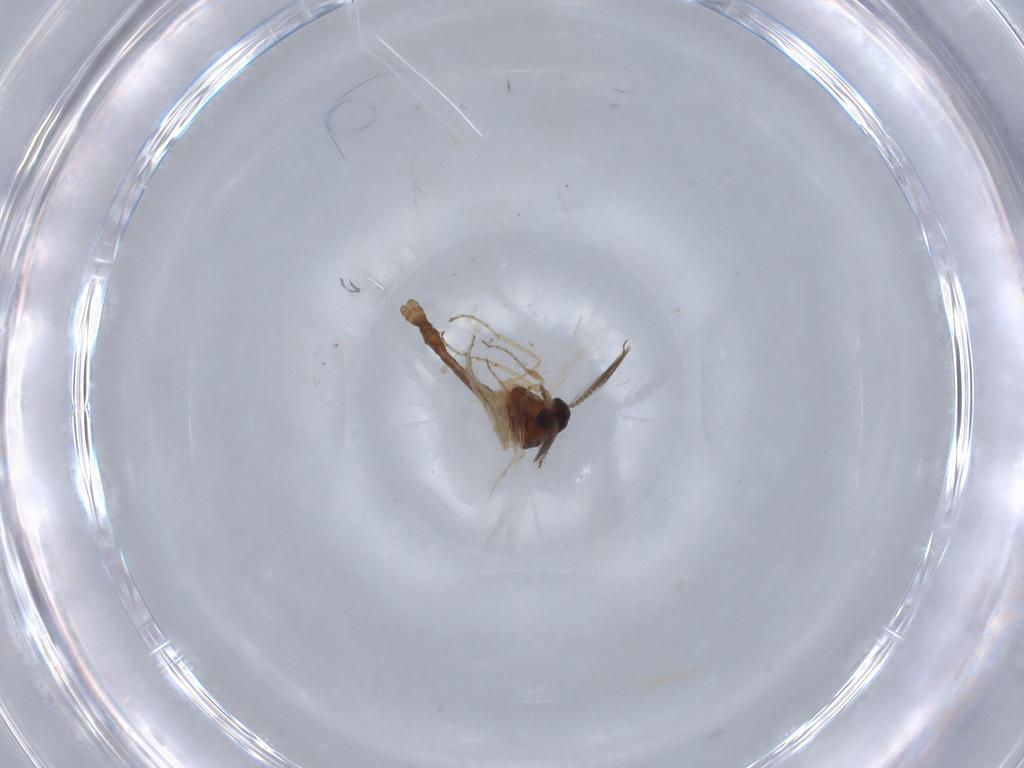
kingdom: Animalia
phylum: Arthropoda
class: Insecta
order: Diptera
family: Ceratopogonidae
